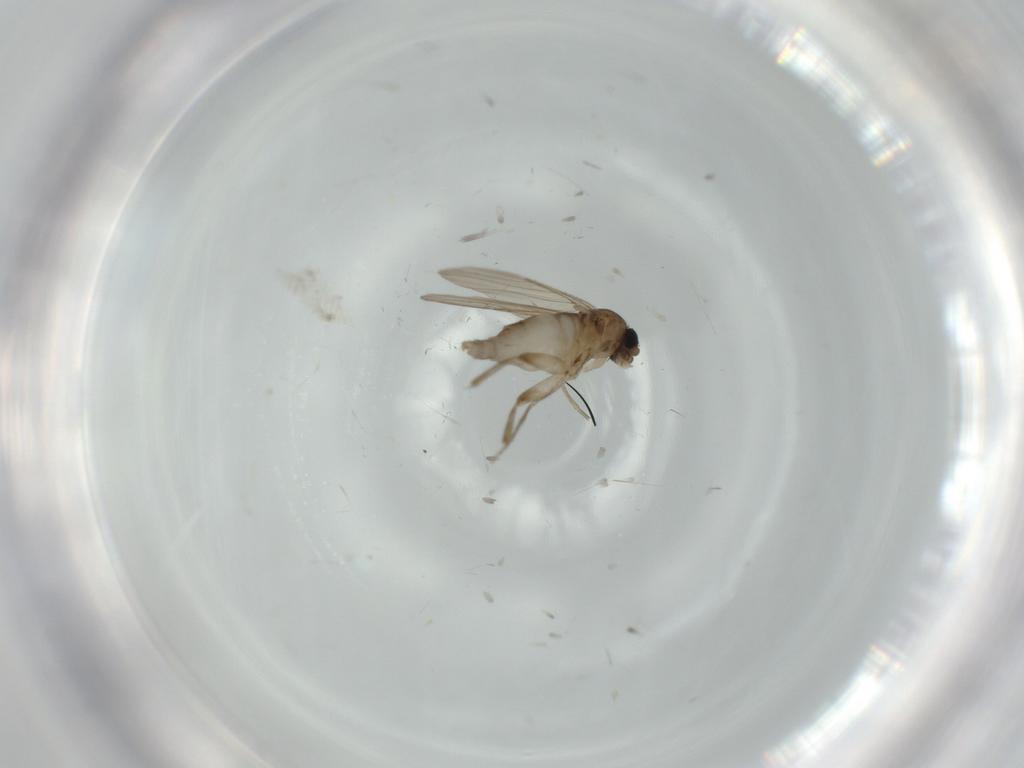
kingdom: Animalia
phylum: Arthropoda
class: Insecta
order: Diptera
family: Phoridae
